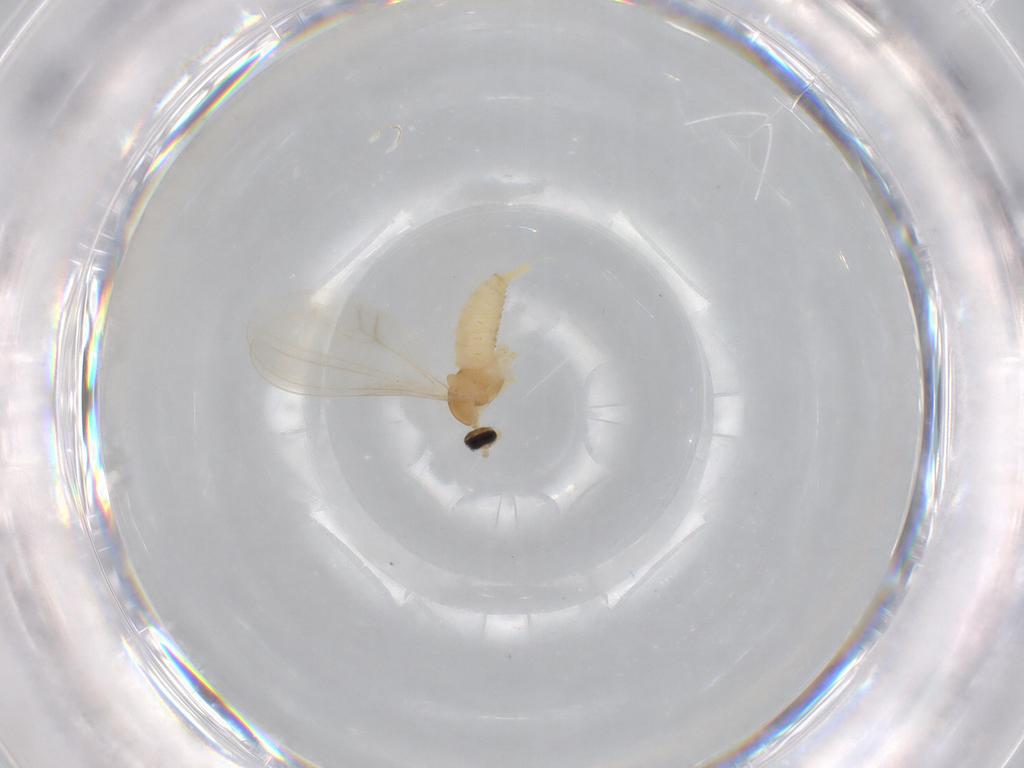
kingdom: Animalia
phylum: Arthropoda
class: Insecta
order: Diptera
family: Cecidomyiidae
